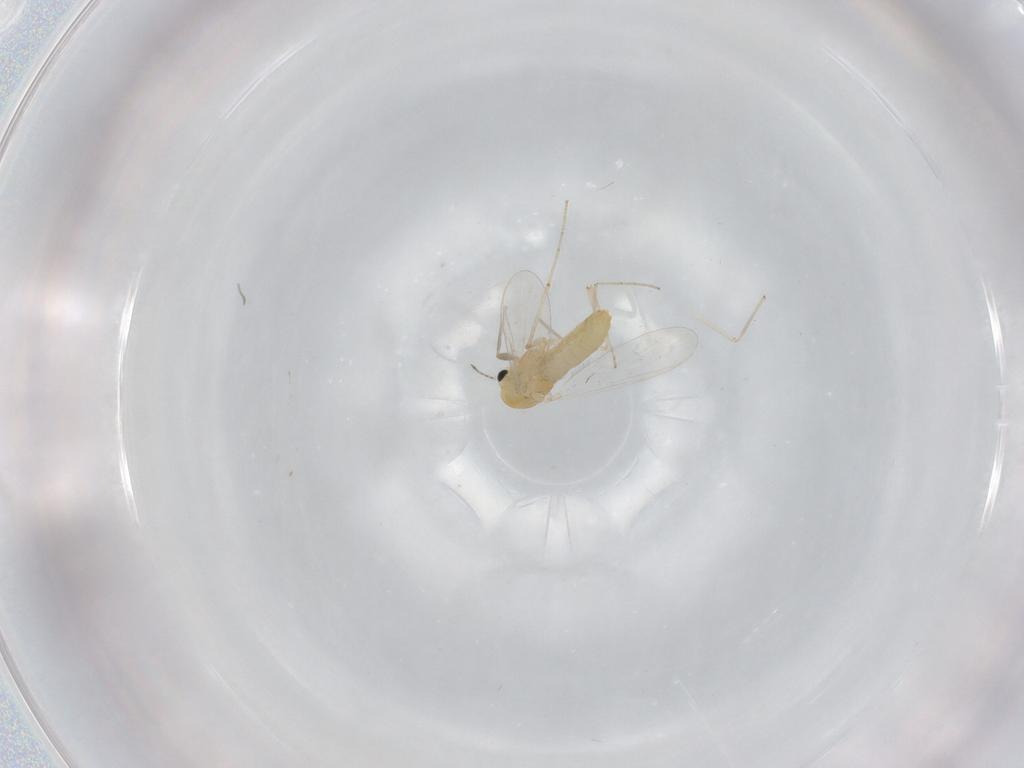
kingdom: Animalia
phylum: Arthropoda
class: Insecta
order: Diptera
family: Chironomidae
